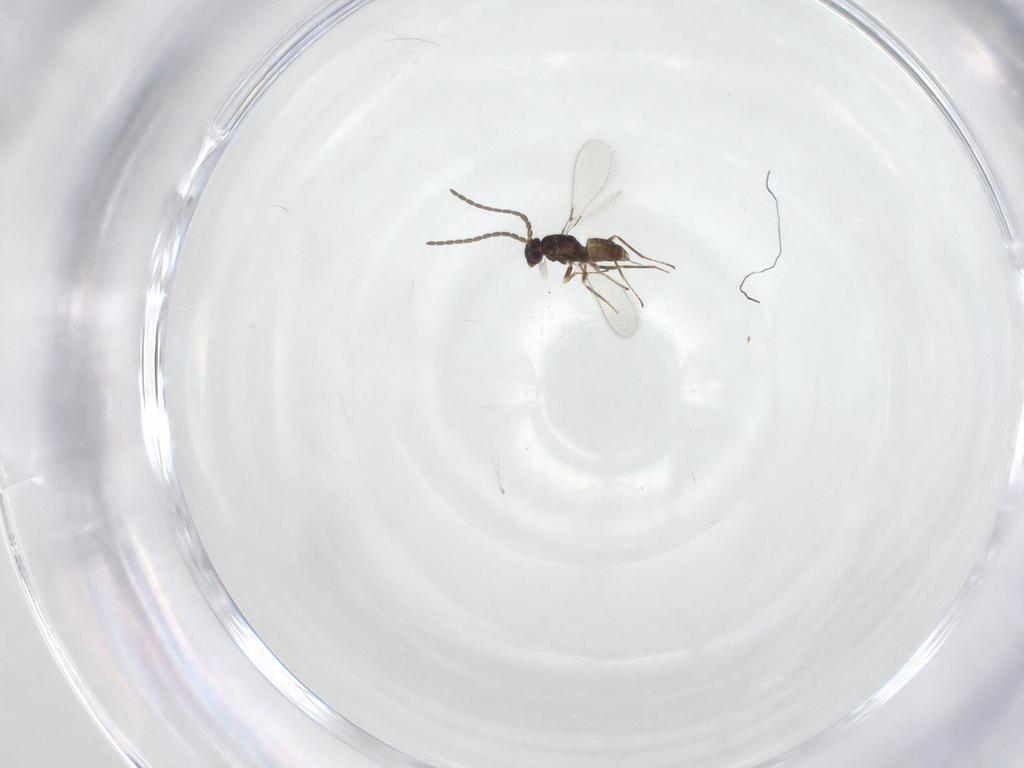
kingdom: Animalia
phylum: Arthropoda
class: Insecta
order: Hymenoptera
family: Mymaridae
